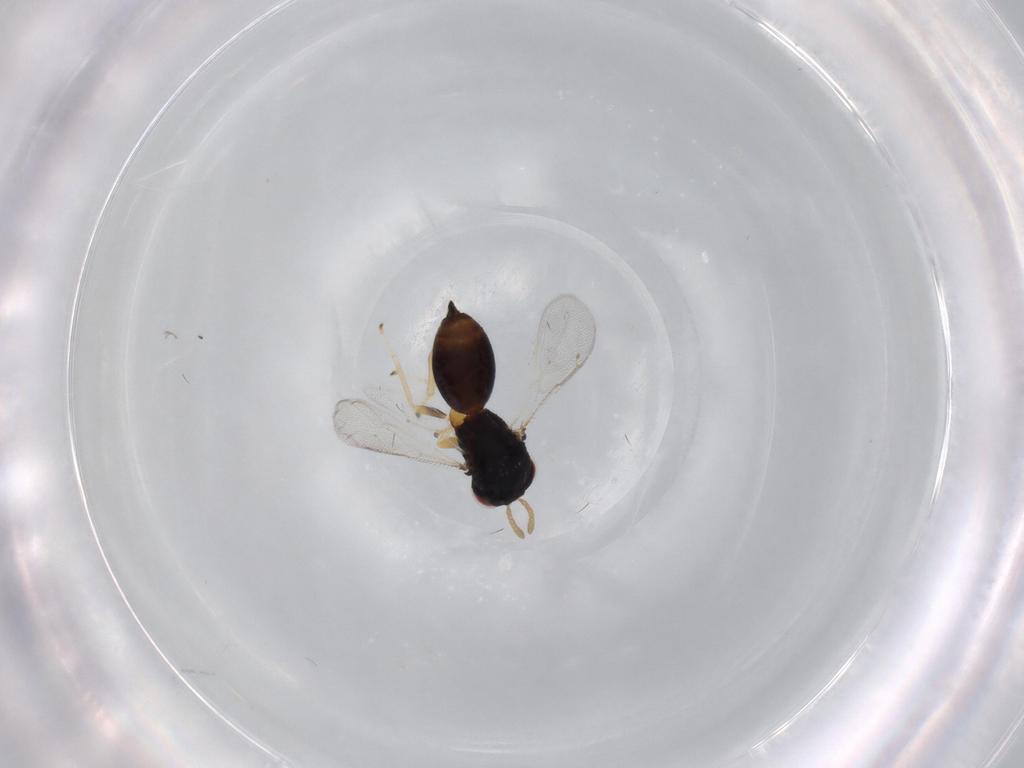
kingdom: Animalia
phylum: Arthropoda
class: Insecta
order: Hymenoptera
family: Eurytomidae
